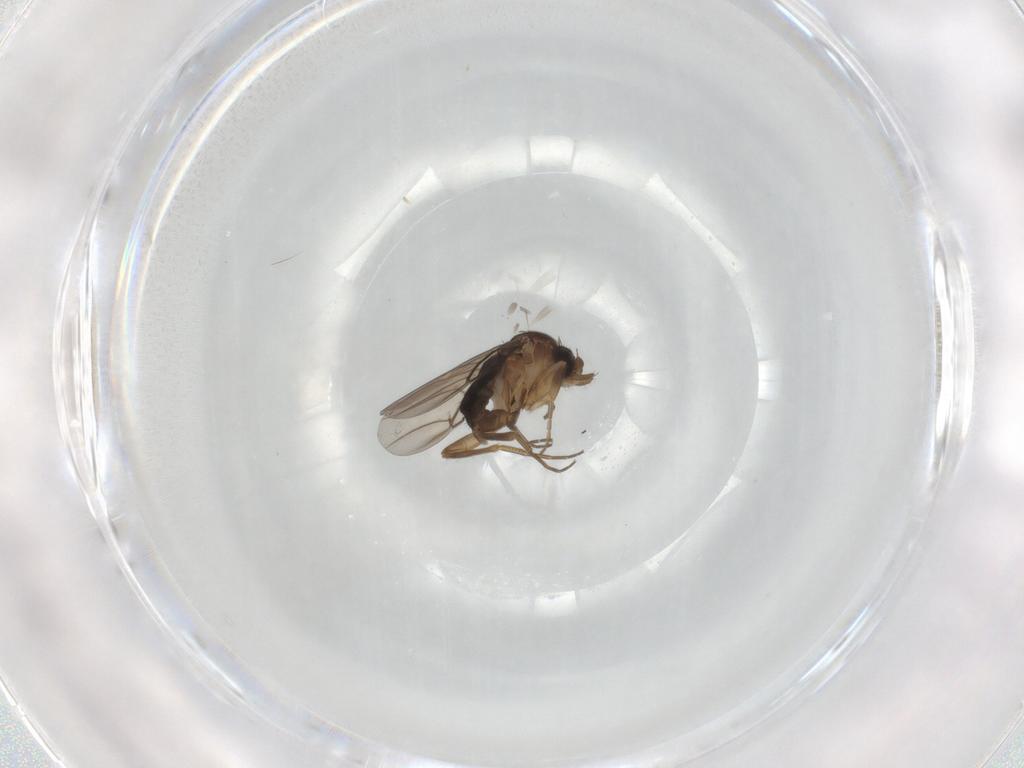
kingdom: Animalia
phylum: Arthropoda
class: Insecta
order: Diptera
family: Phoridae
